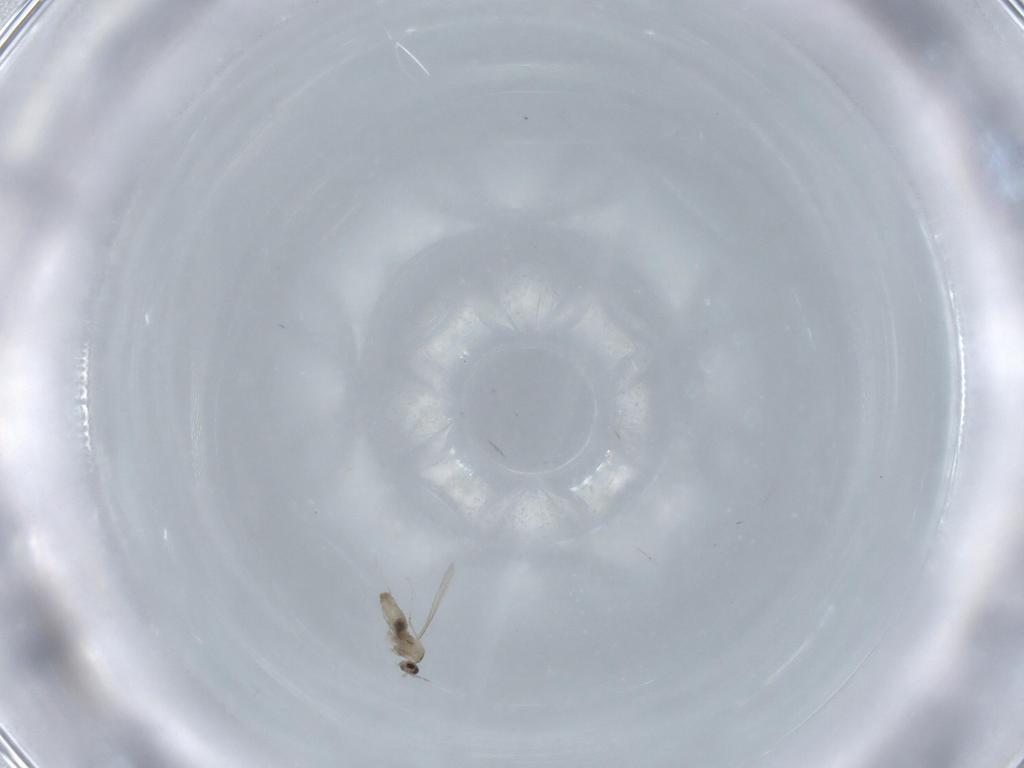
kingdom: Animalia
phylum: Arthropoda
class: Insecta
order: Diptera
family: Cecidomyiidae
